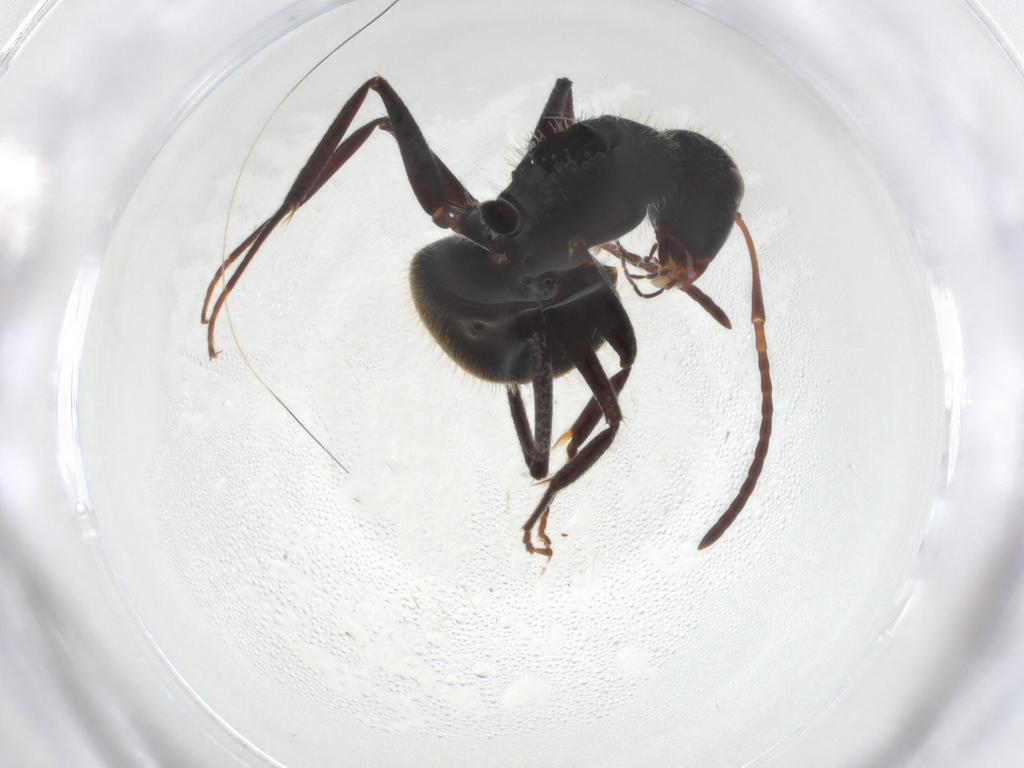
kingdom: Animalia
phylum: Arthropoda
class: Insecta
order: Hymenoptera
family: Formicidae
